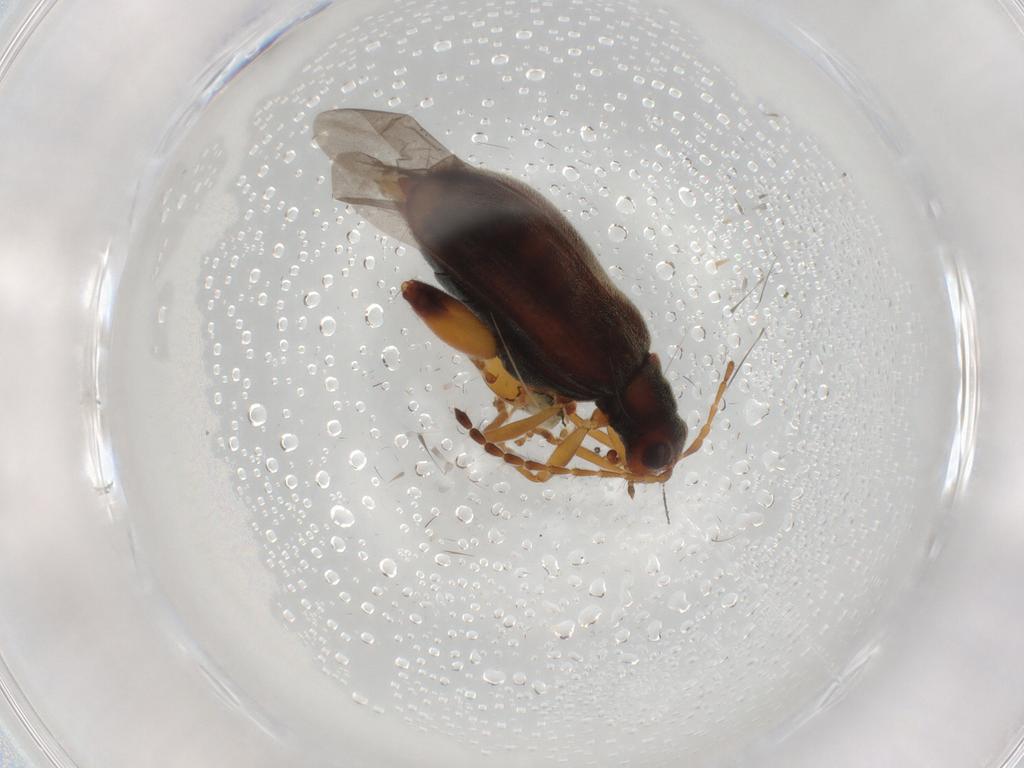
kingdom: Animalia
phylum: Arthropoda
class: Insecta
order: Coleoptera
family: Chrysomelidae
